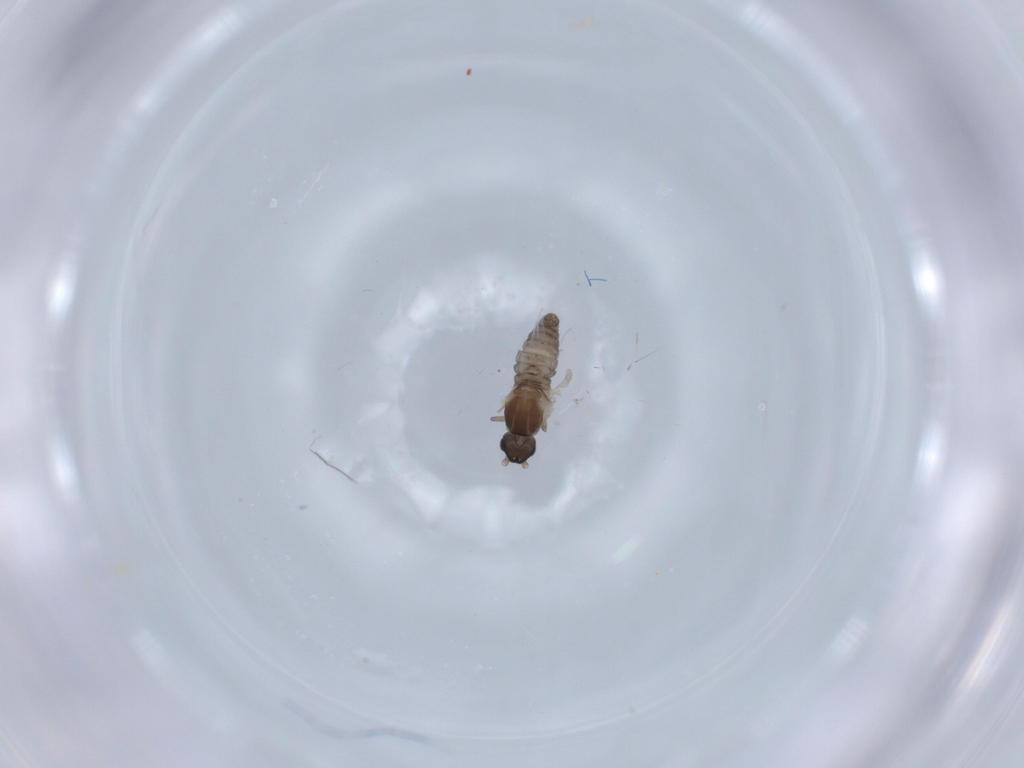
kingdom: Animalia
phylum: Arthropoda
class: Insecta
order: Diptera
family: Cecidomyiidae
